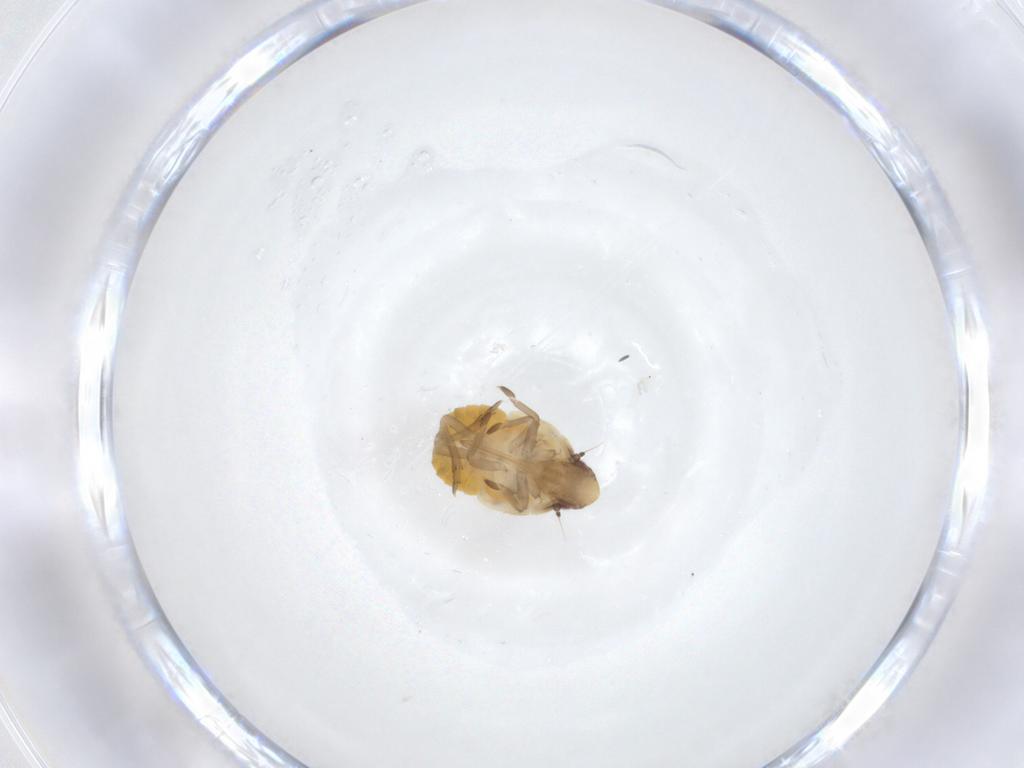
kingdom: Animalia
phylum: Arthropoda
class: Insecta
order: Hemiptera
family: Flatidae
